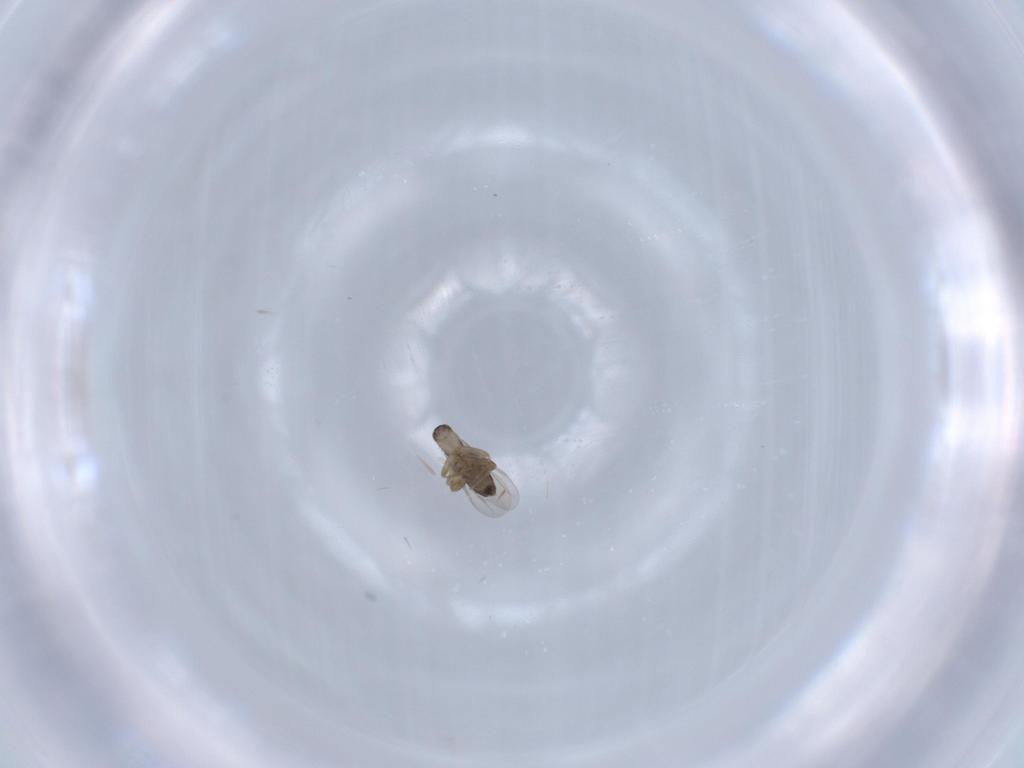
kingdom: Animalia
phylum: Arthropoda
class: Insecta
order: Diptera
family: Phoridae
